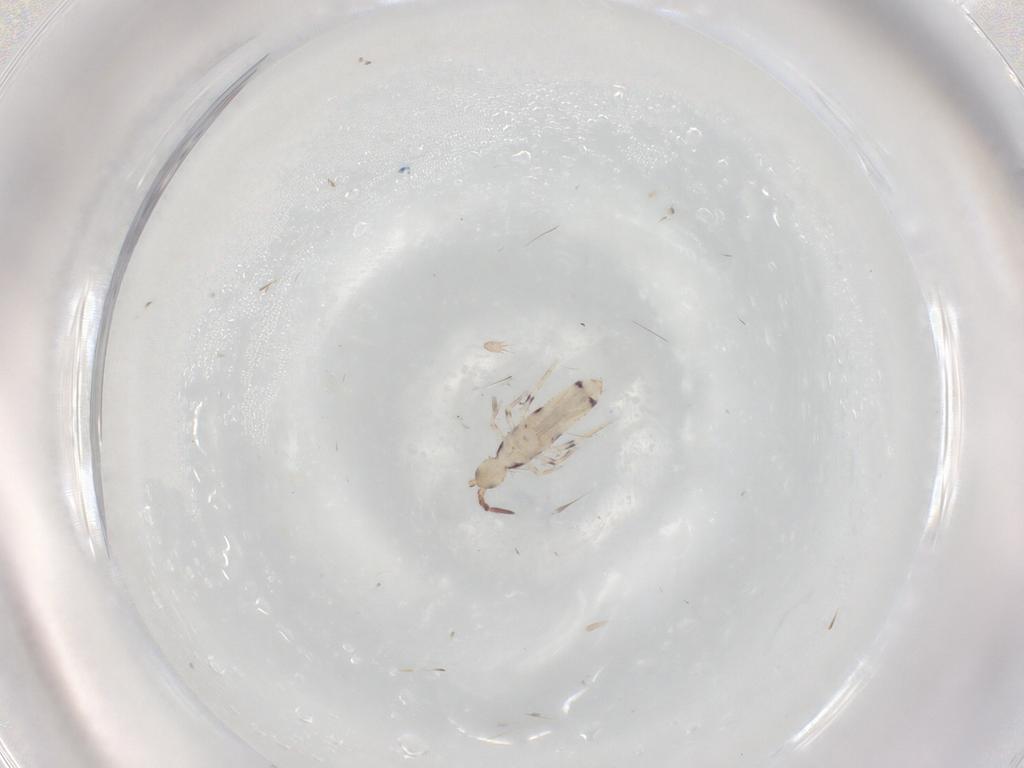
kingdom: Animalia
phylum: Arthropoda
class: Collembola
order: Entomobryomorpha
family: Entomobryidae
